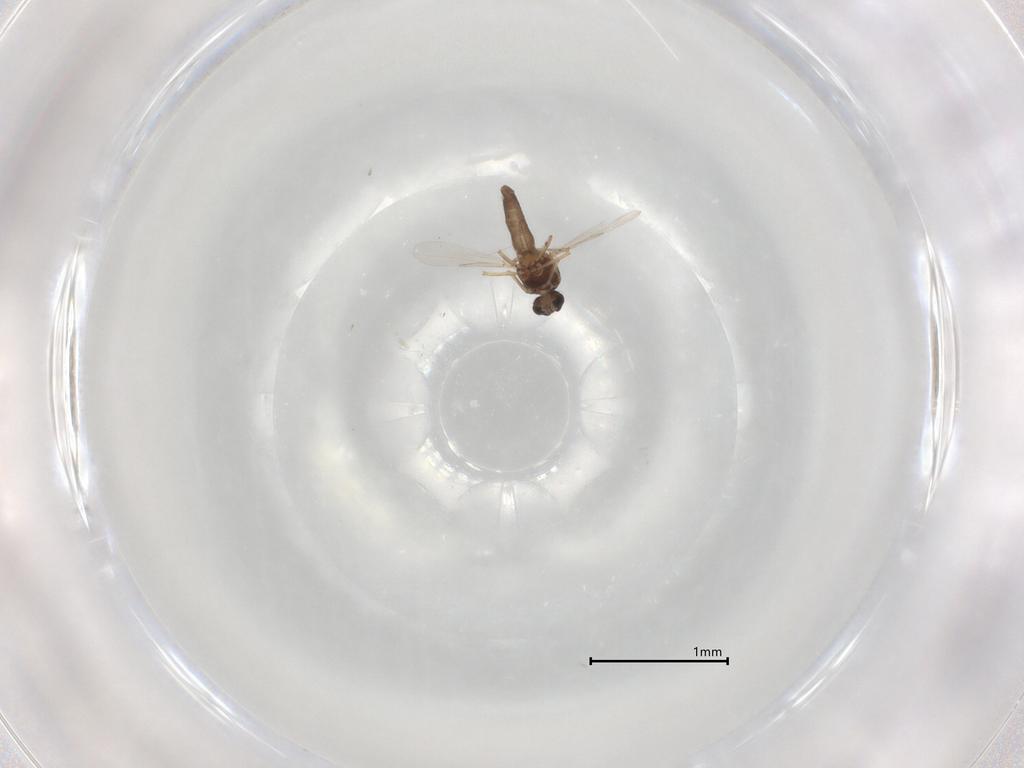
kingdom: Animalia
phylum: Arthropoda
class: Insecta
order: Diptera
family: Ceratopogonidae
